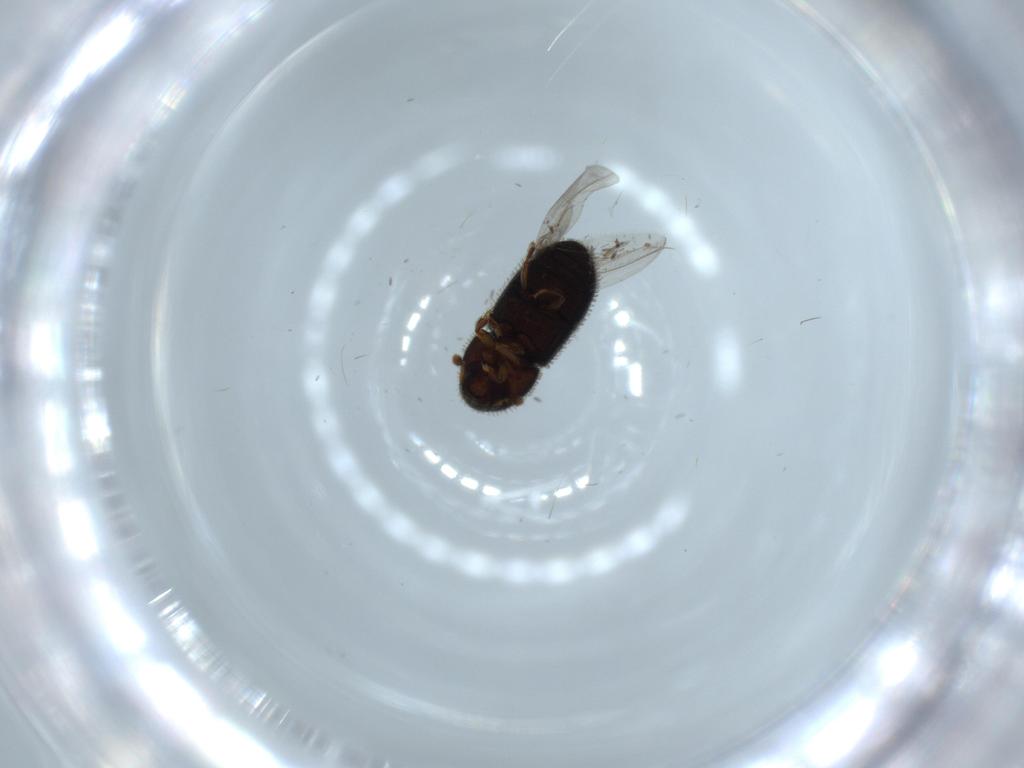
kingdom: Animalia
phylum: Arthropoda
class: Insecta
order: Coleoptera
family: Curculionidae
